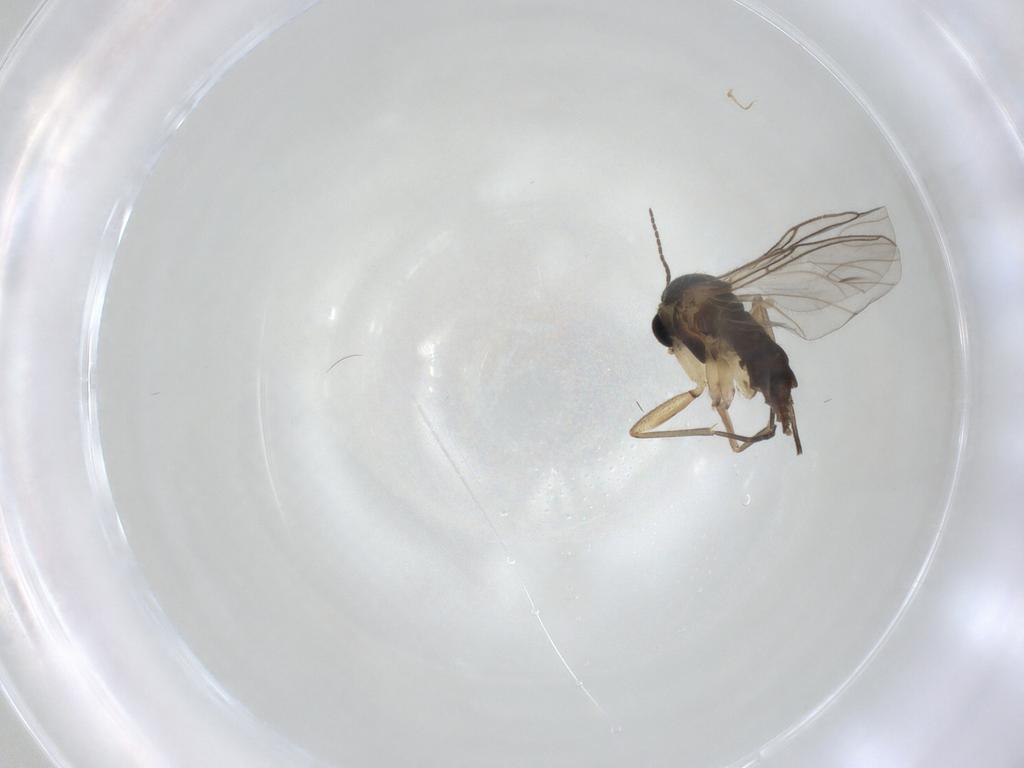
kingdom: Animalia
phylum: Arthropoda
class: Insecta
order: Diptera
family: Sciaridae
